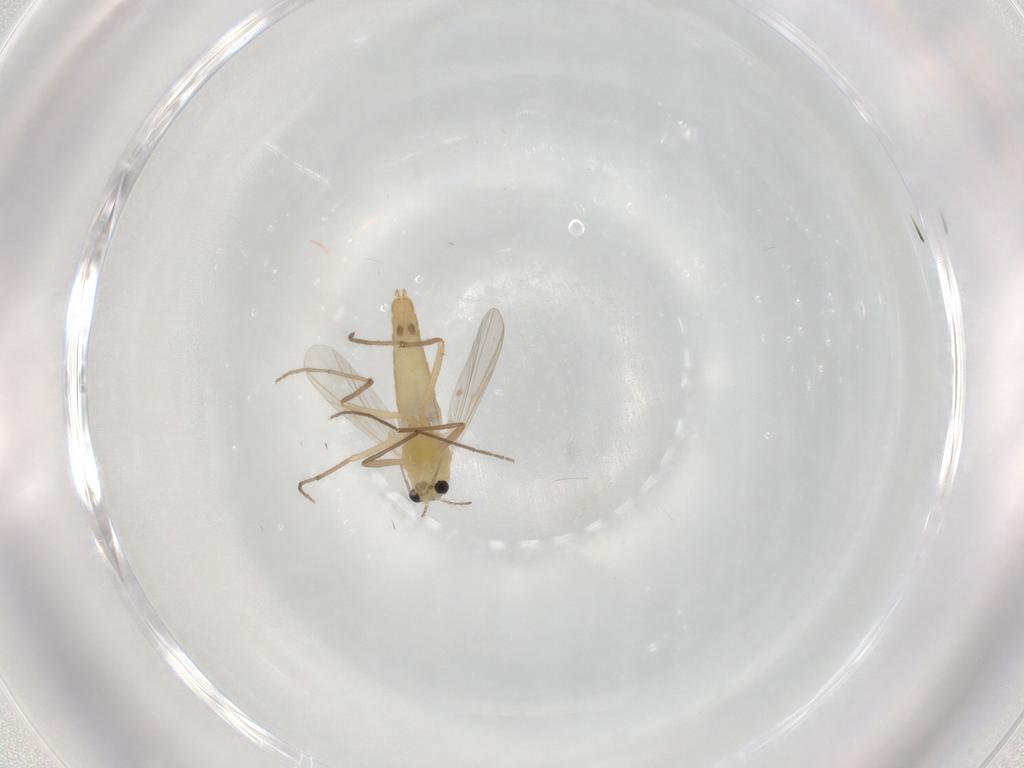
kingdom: Animalia
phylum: Arthropoda
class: Insecta
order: Diptera
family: Chironomidae
